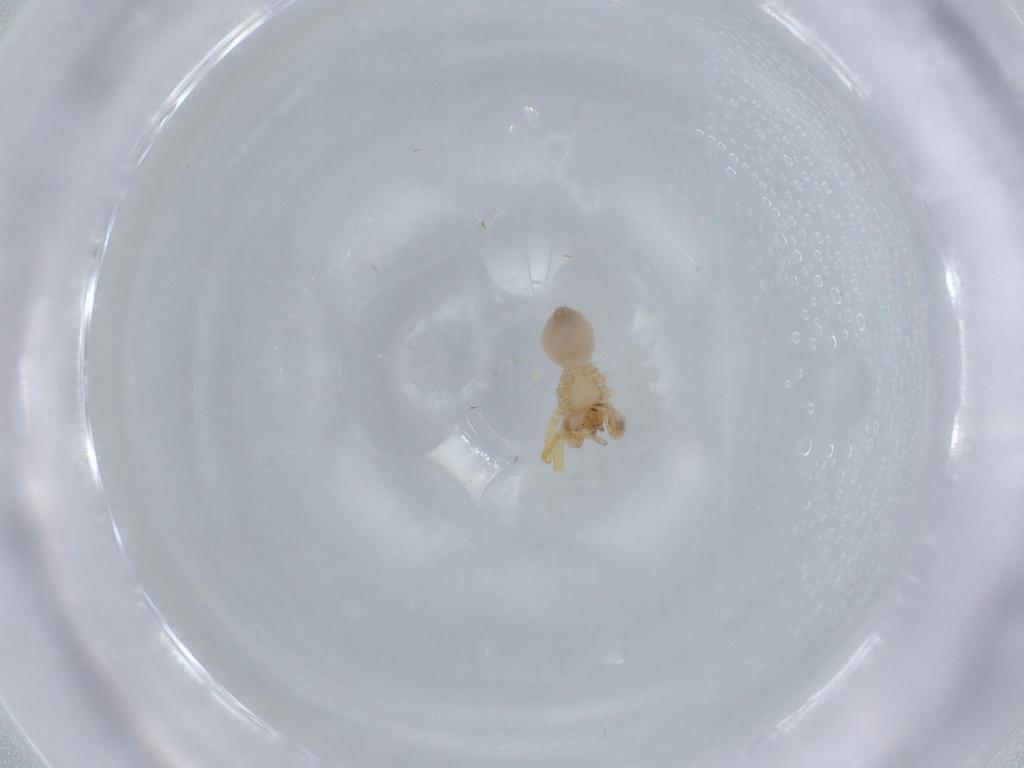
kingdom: Animalia
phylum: Arthropoda
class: Arachnida
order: Araneae
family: Oonopidae
